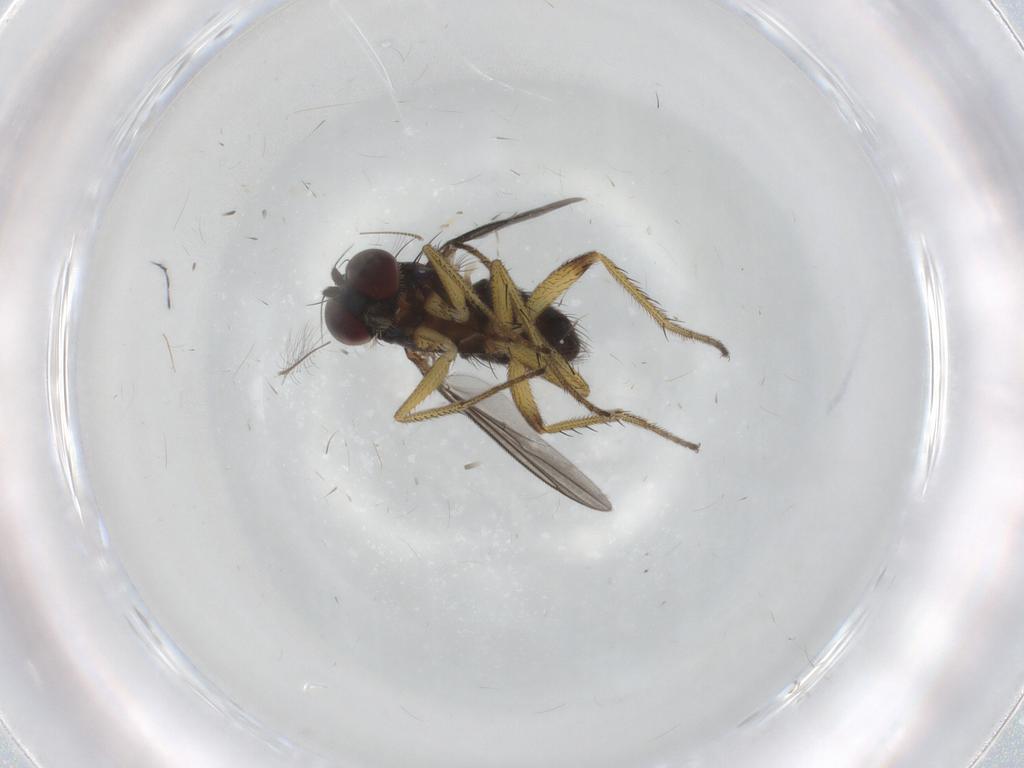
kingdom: Animalia
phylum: Arthropoda
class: Insecta
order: Diptera
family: Dolichopodidae
